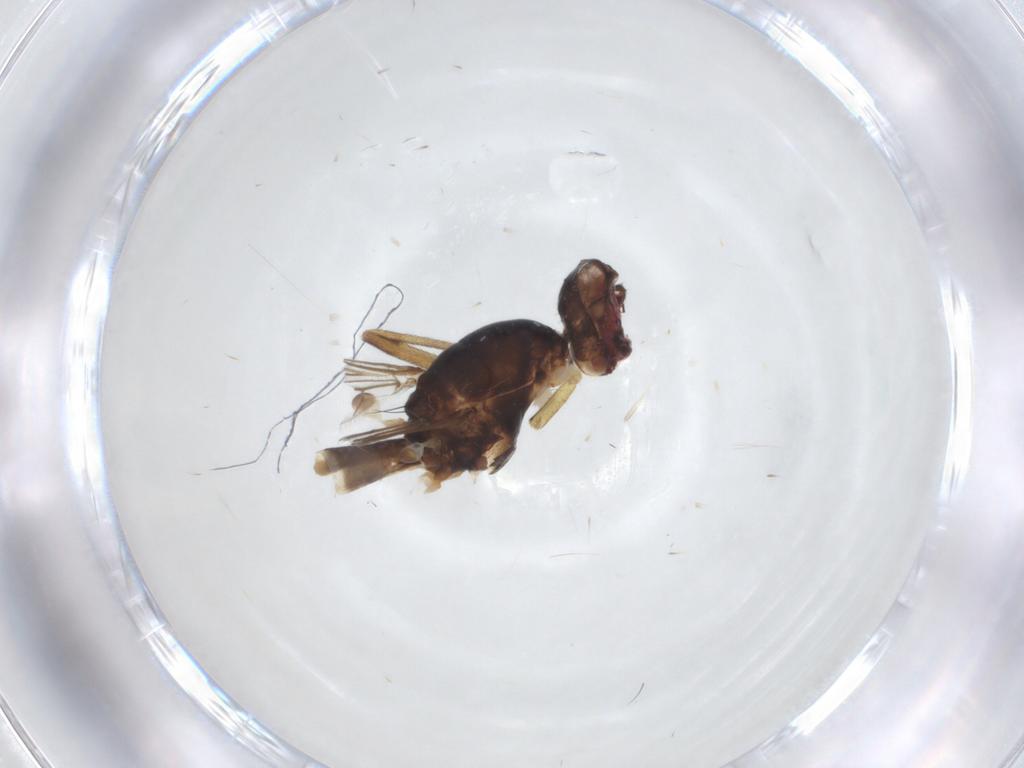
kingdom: Animalia
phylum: Arthropoda
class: Insecta
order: Diptera
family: Micropezidae
